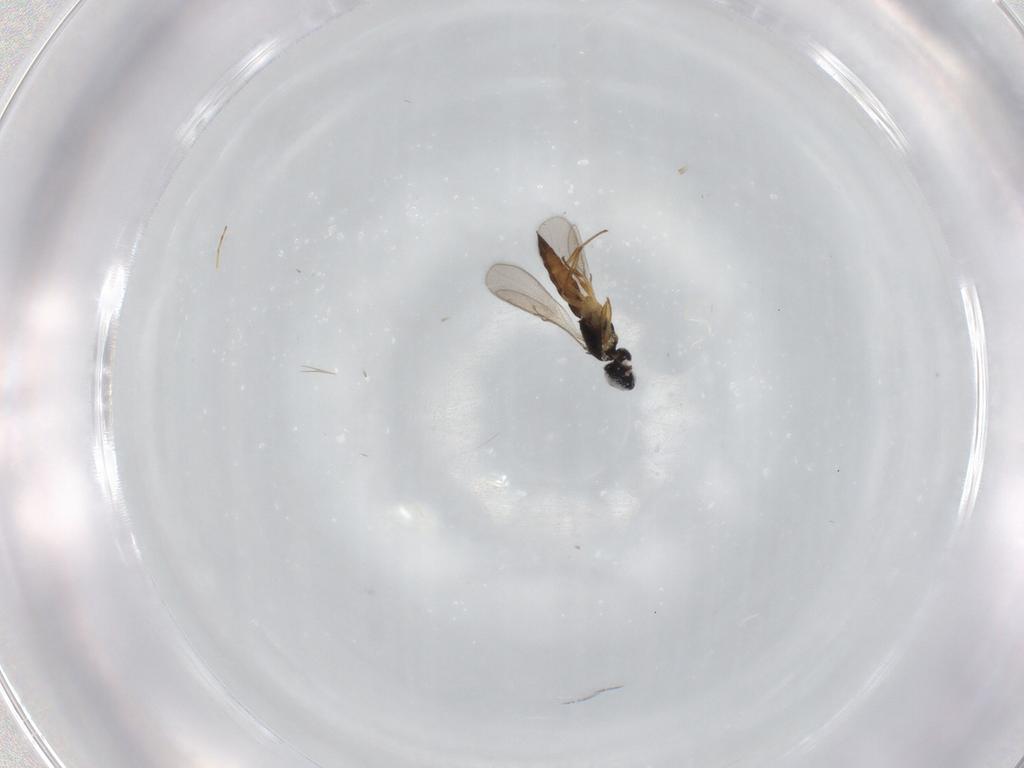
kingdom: Animalia
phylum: Arthropoda
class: Insecta
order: Hymenoptera
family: Scelionidae
